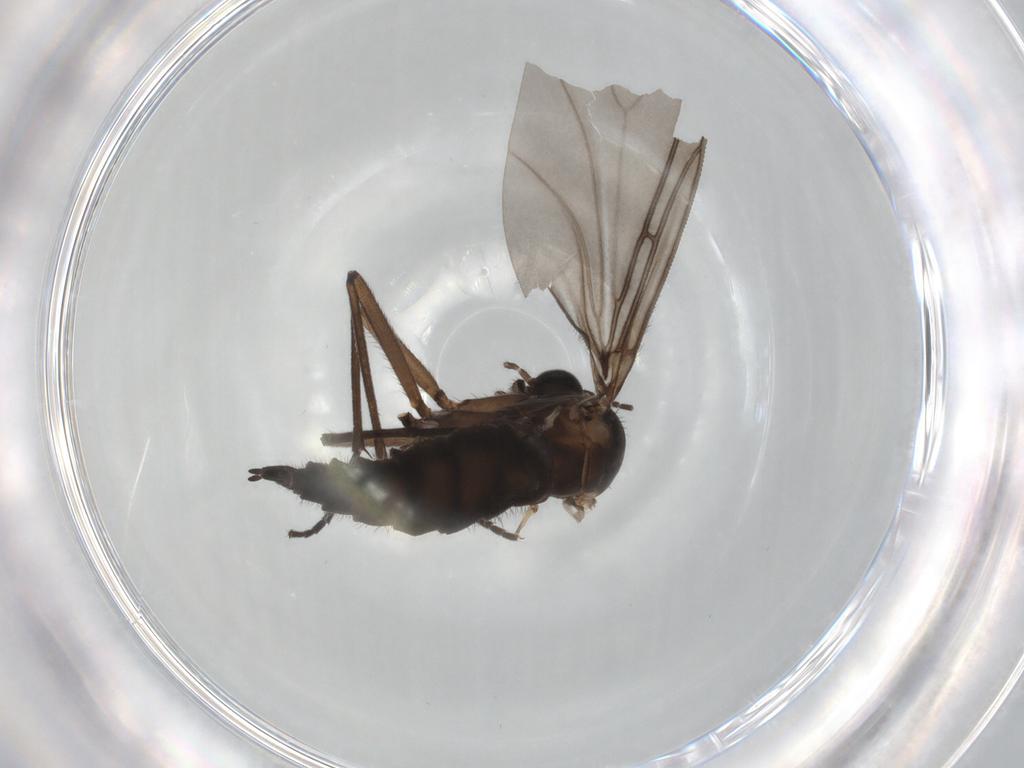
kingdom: Animalia
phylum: Arthropoda
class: Insecta
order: Diptera
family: Sciaridae
